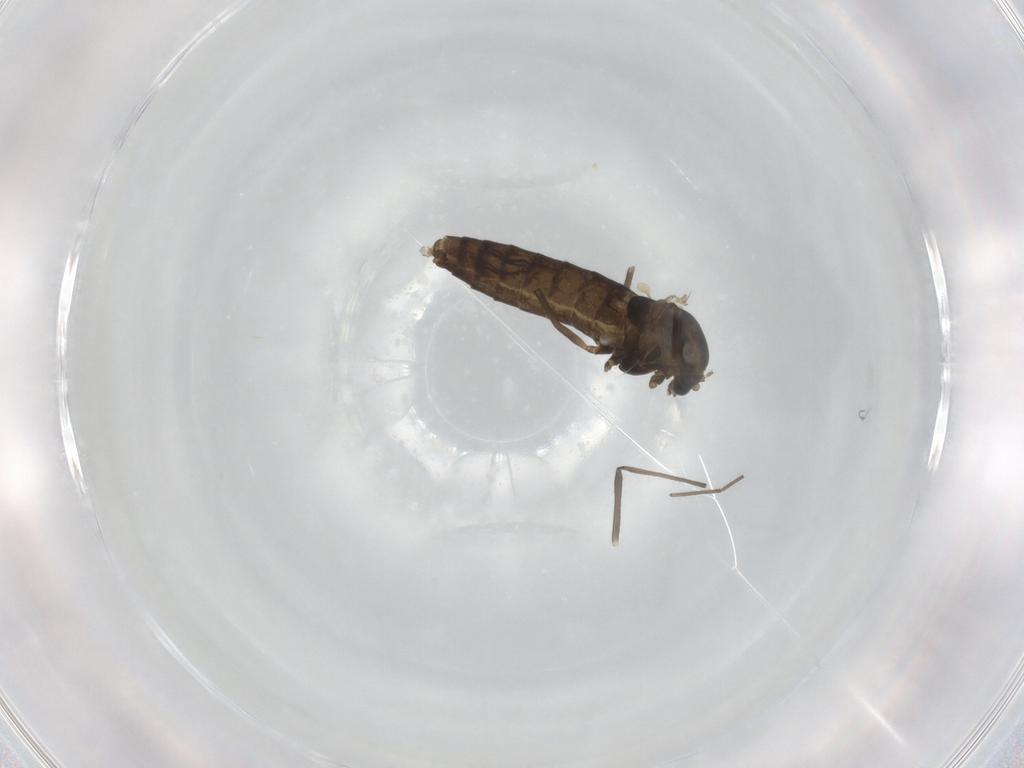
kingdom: Animalia
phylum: Arthropoda
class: Insecta
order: Diptera
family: Chironomidae
